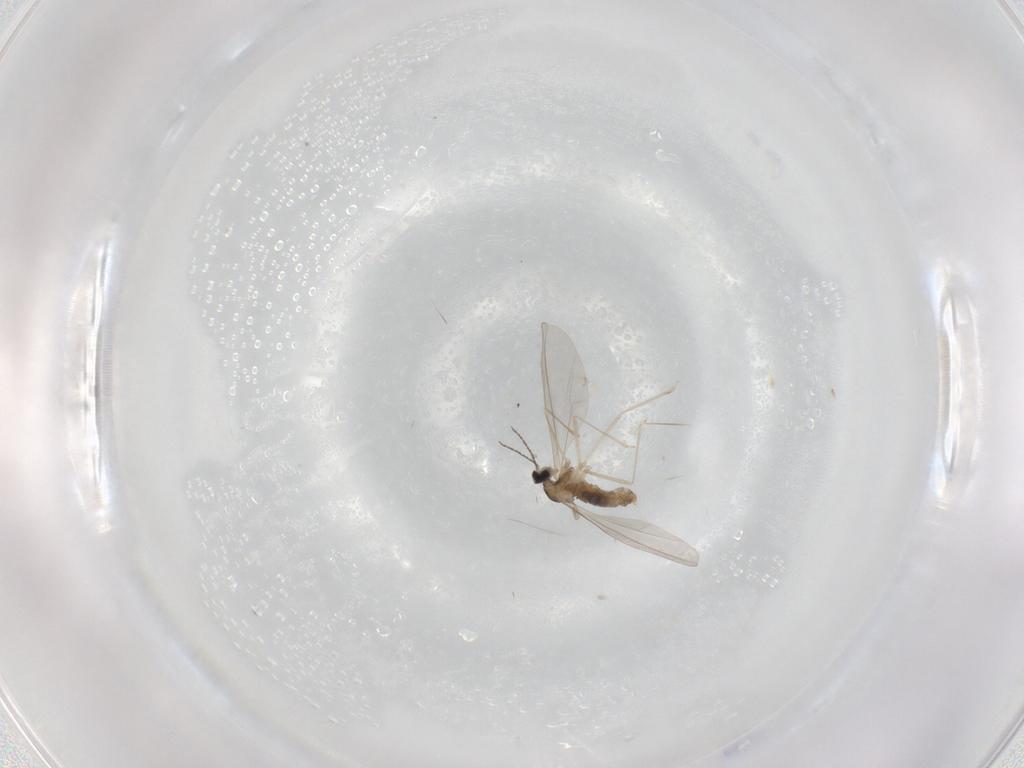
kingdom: Animalia
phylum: Arthropoda
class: Insecta
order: Diptera
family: Cecidomyiidae
